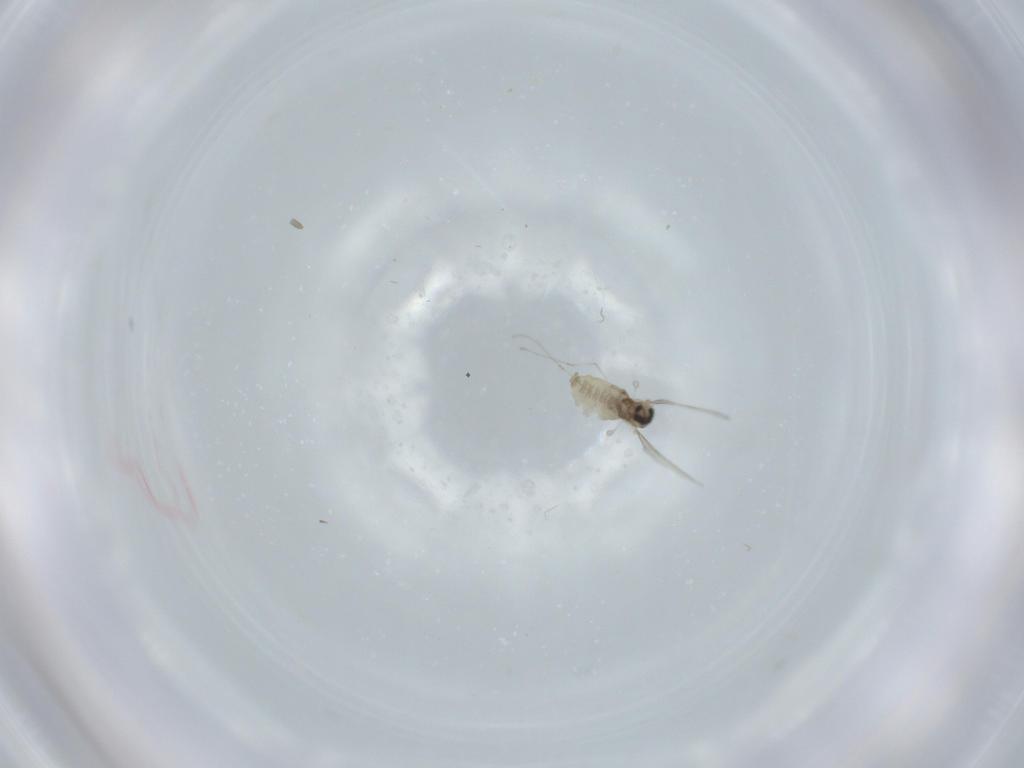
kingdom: Animalia
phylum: Arthropoda
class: Insecta
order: Diptera
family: Cecidomyiidae
